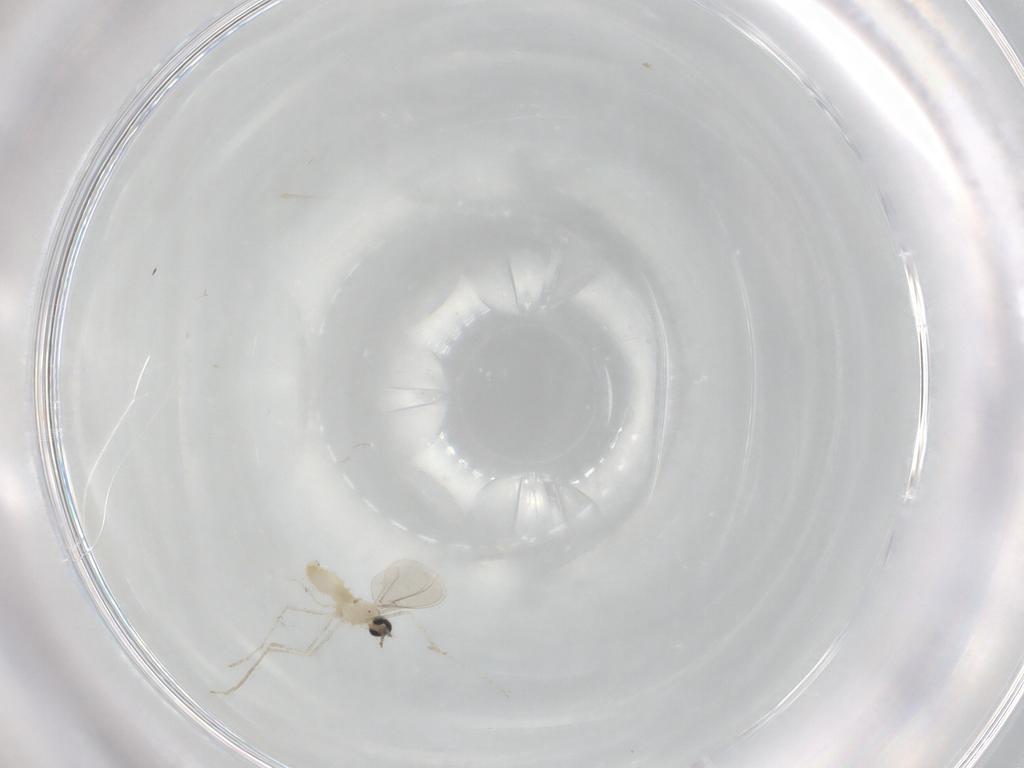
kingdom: Animalia
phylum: Arthropoda
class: Insecta
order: Diptera
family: Cecidomyiidae
